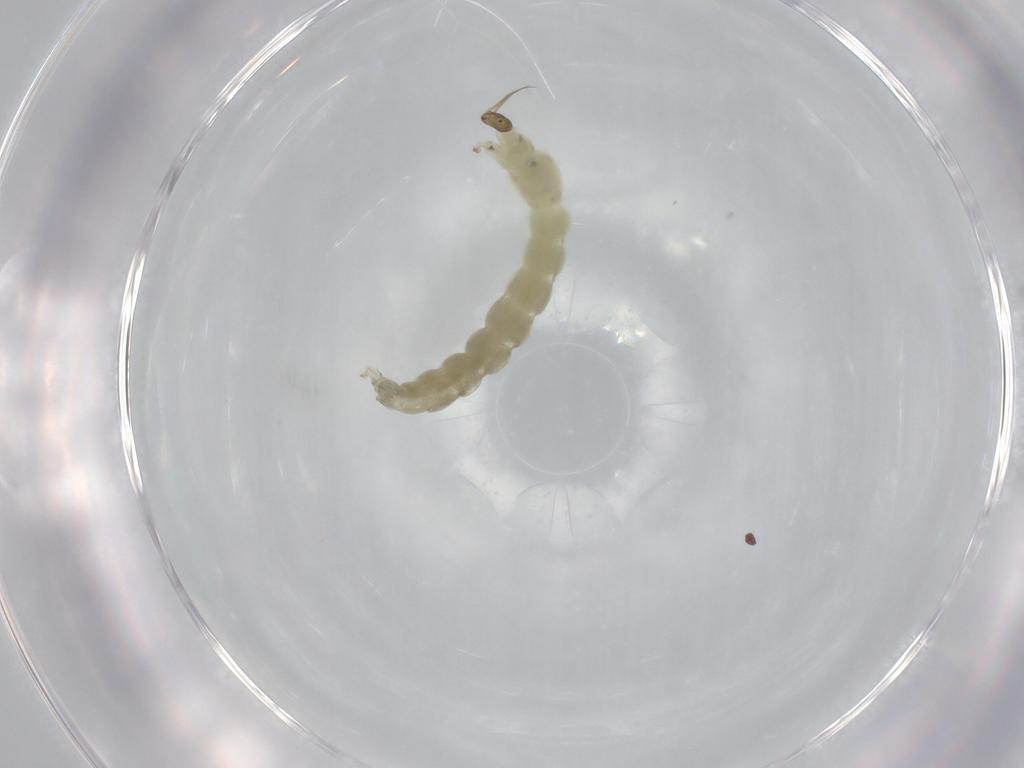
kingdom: Animalia
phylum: Arthropoda
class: Insecta
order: Diptera
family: Chironomidae
